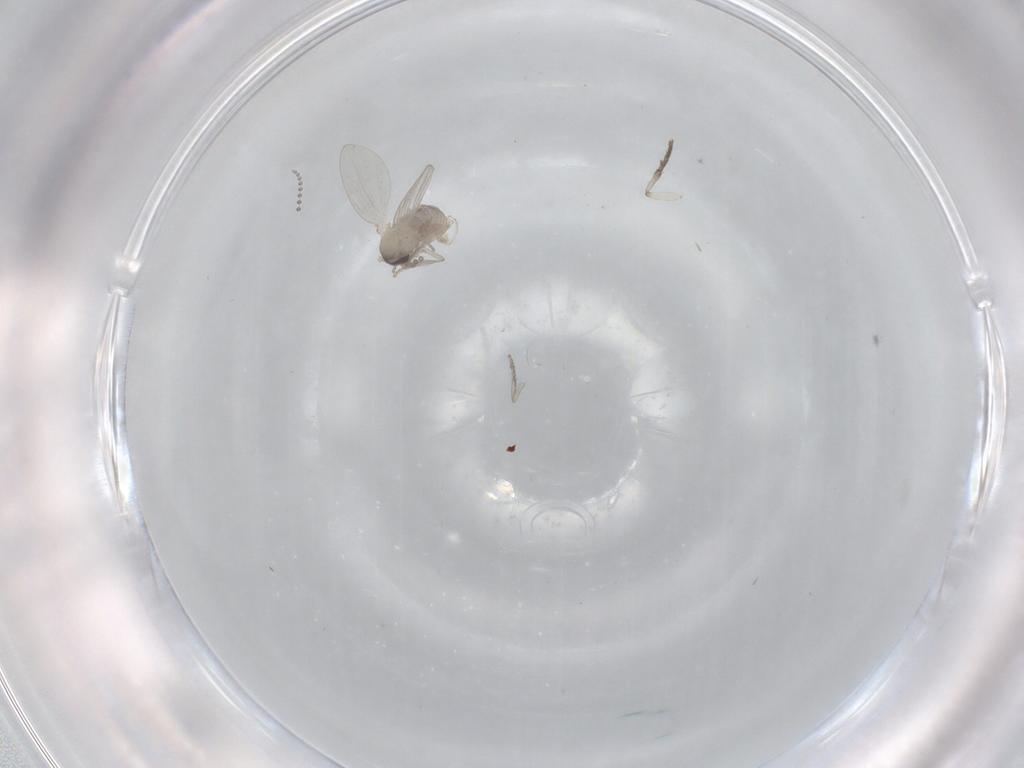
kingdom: Animalia
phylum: Arthropoda
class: Insecta
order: Diptera
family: Psychodidae
